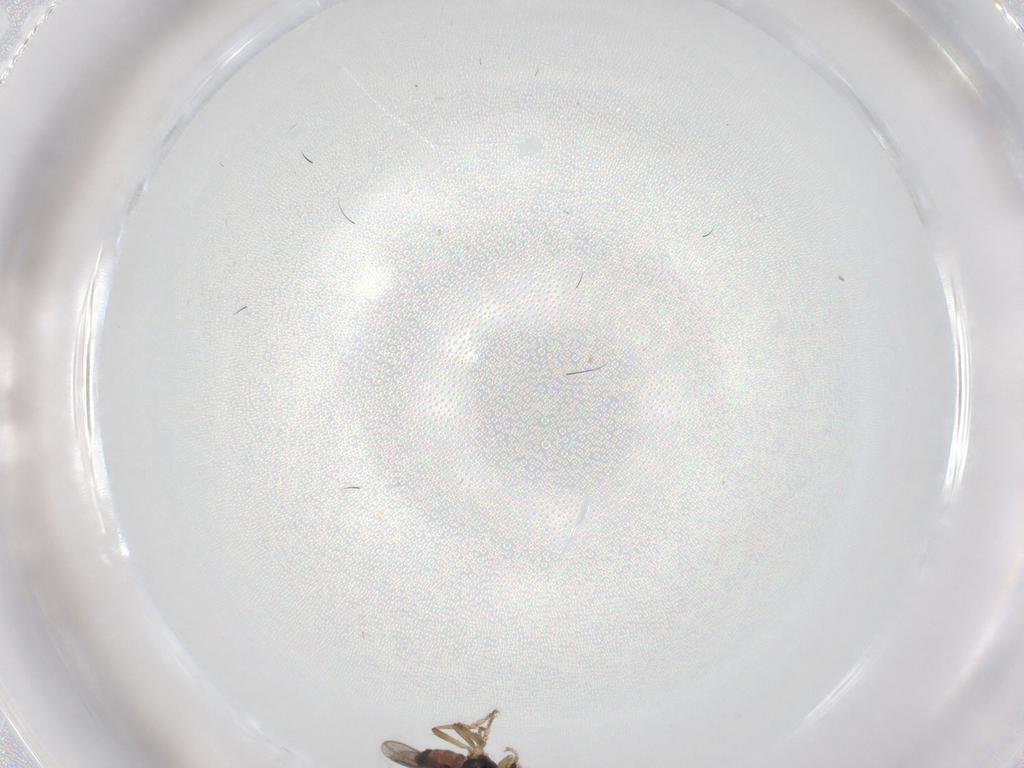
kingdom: Animalia
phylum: Arthropoda
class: Insecta
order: Diptera
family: Sphaeroceridae
